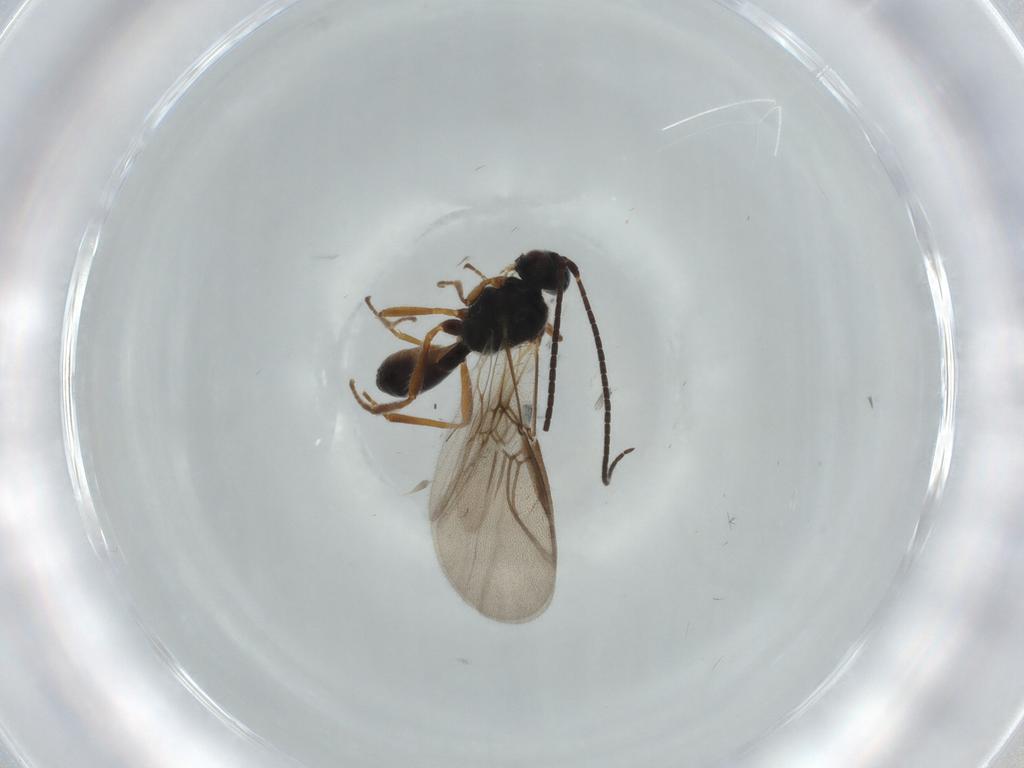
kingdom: Animalia
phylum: Arthropoda
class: Insecta
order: Hymenoptera
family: Braconidae
